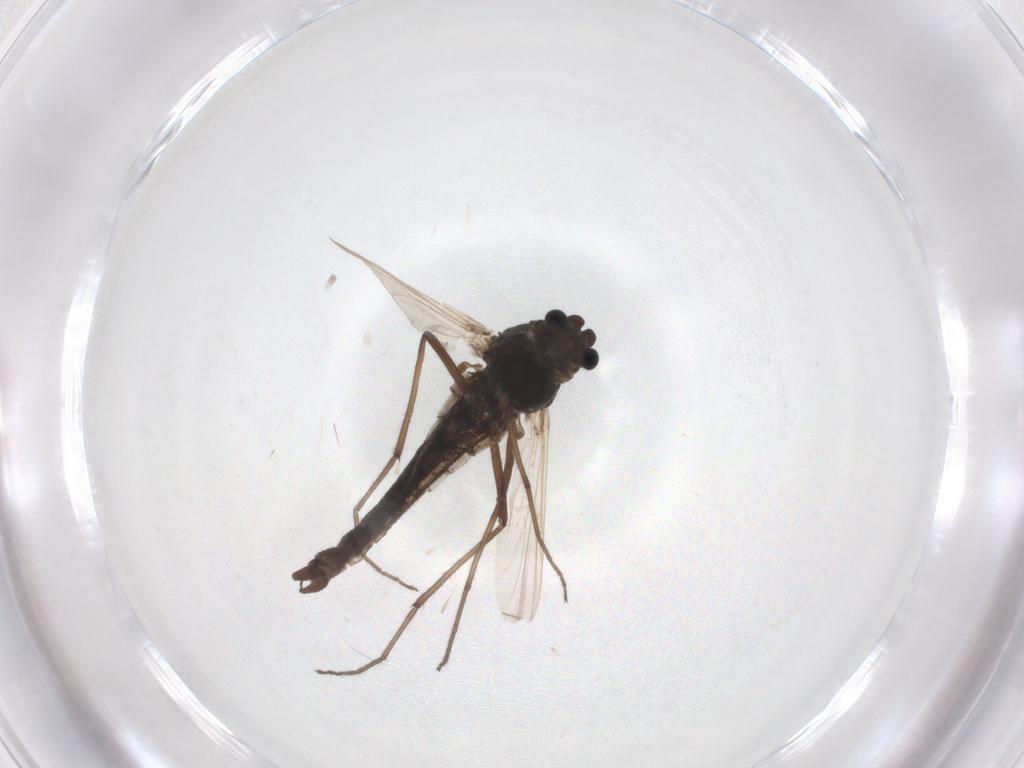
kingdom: Animalia
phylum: Arthropoda
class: Insecta
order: Diptera
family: Chironomidae
